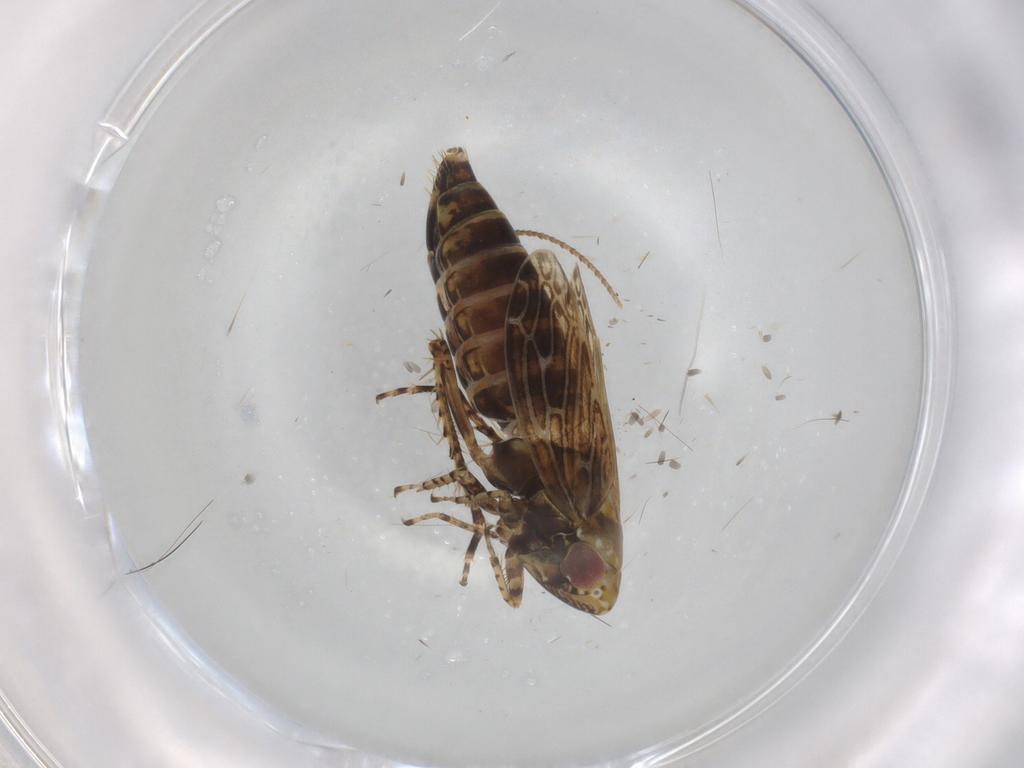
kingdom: Animalia
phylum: Arthropoda
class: Insecta
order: Hemiptera
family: Cicadellidae
